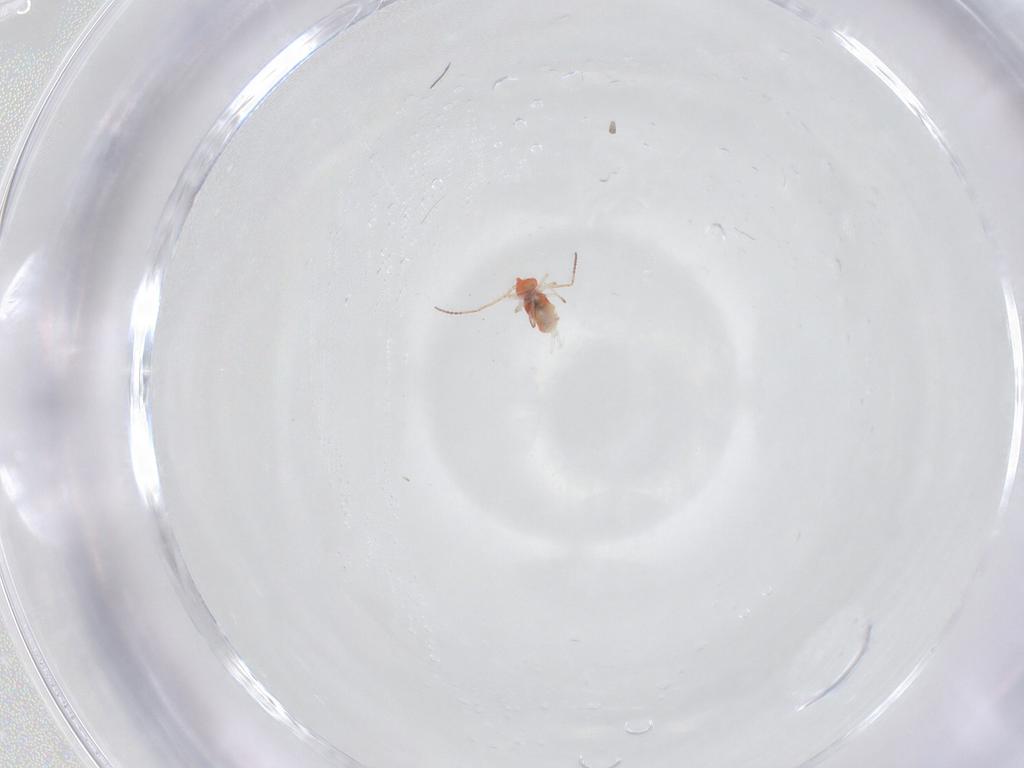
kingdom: Animalia
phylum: Arthropoda
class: Collembola
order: Symphypleona
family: Bourletiellidae
